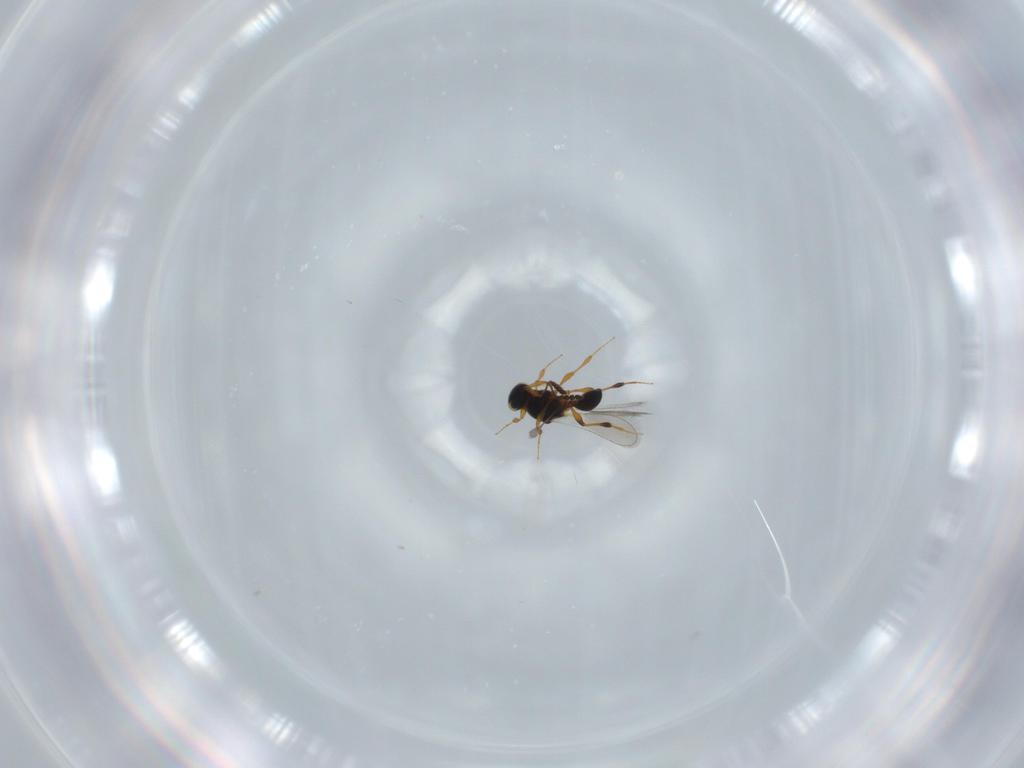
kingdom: Animalia
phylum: Arthropoda
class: Insecta
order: Hymenoptera
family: Platygastridae
